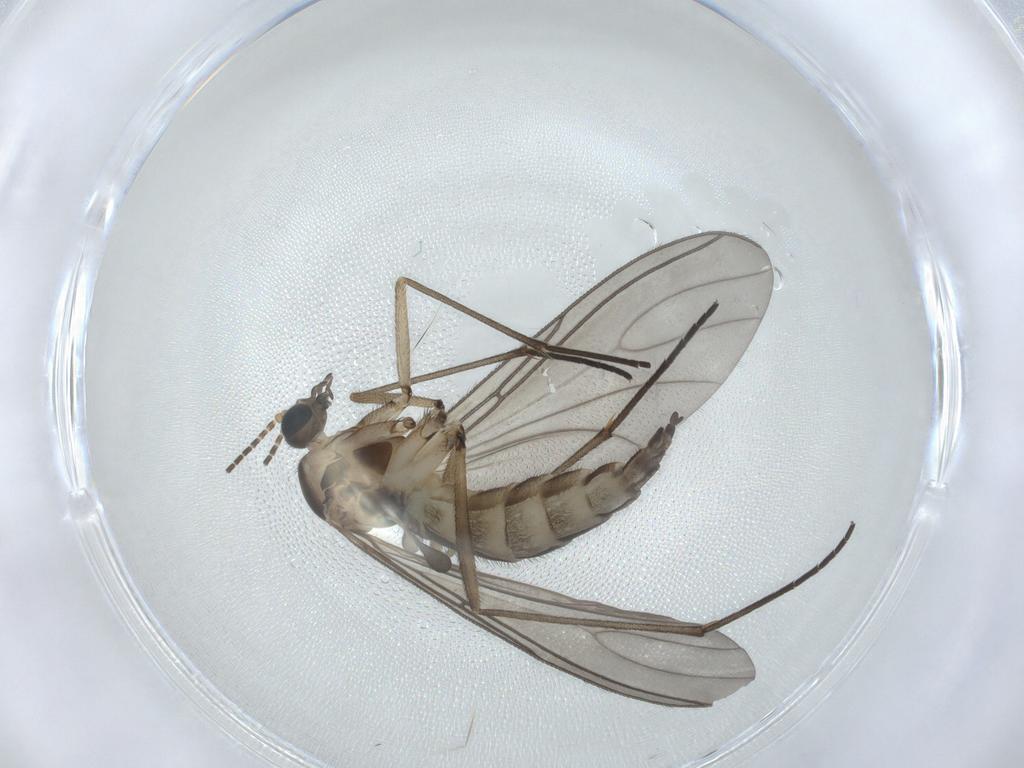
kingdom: Animalia
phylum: Arthropoda
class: Insecta
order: Diptera
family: Sciaridae
